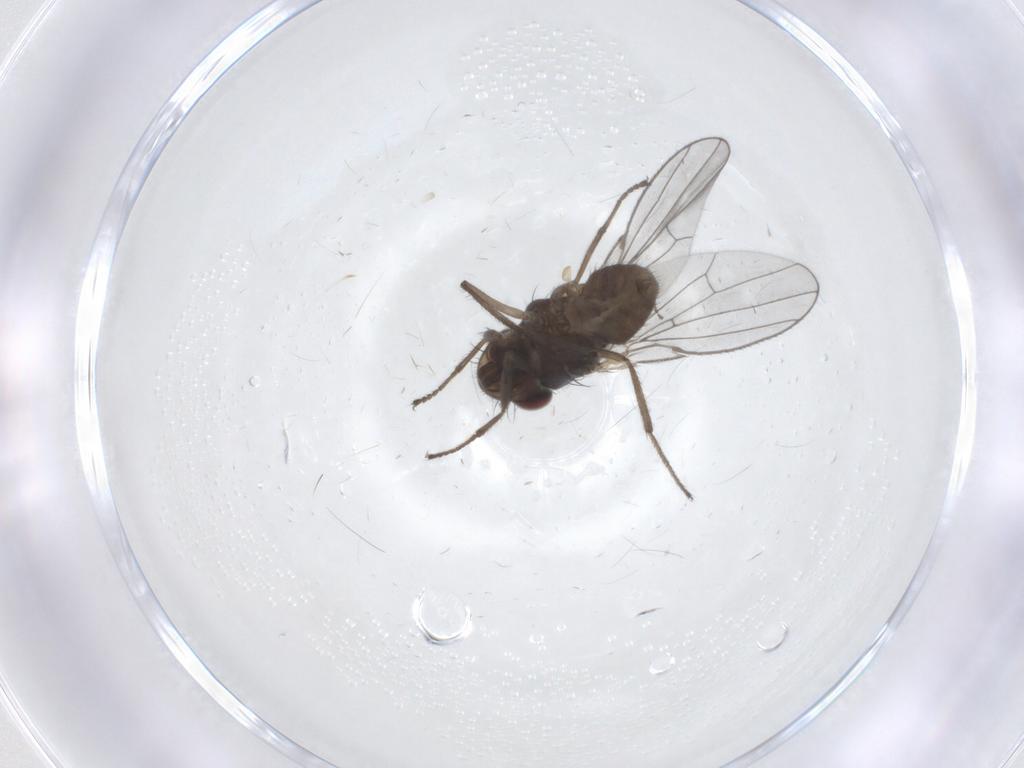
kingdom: Animalia
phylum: Arthropoda
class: Insecta
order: Diptera
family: Ephydridae
